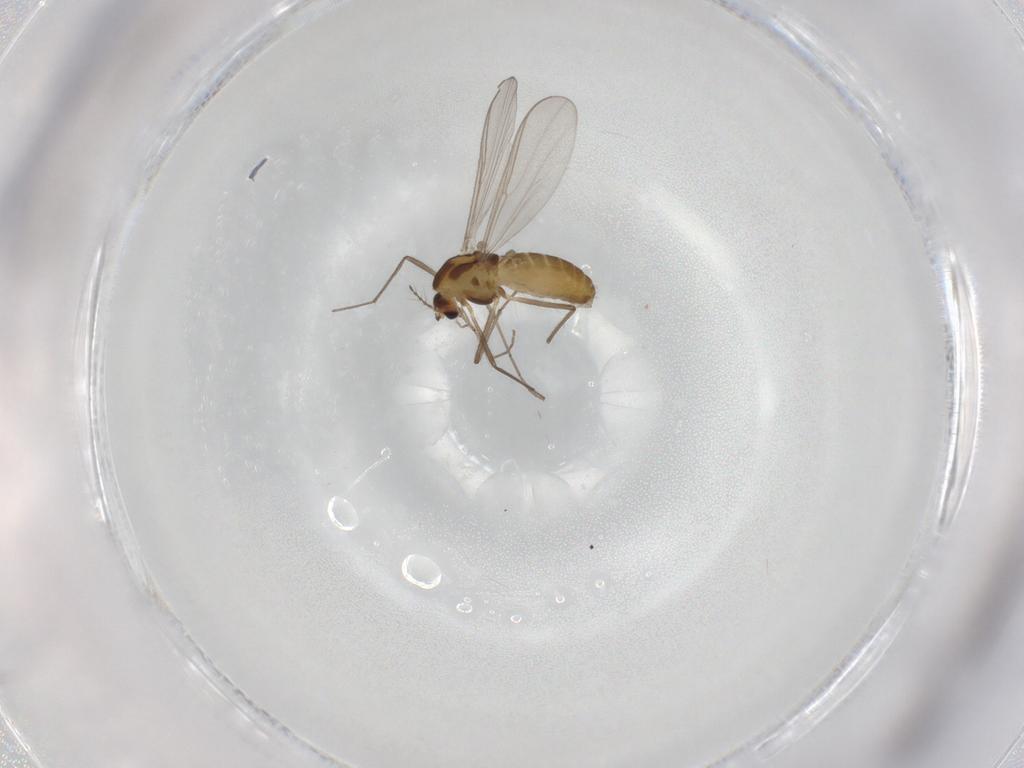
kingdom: Animalia
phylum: Arthropoda
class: Insecta
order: Diptera
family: Chironomidae
